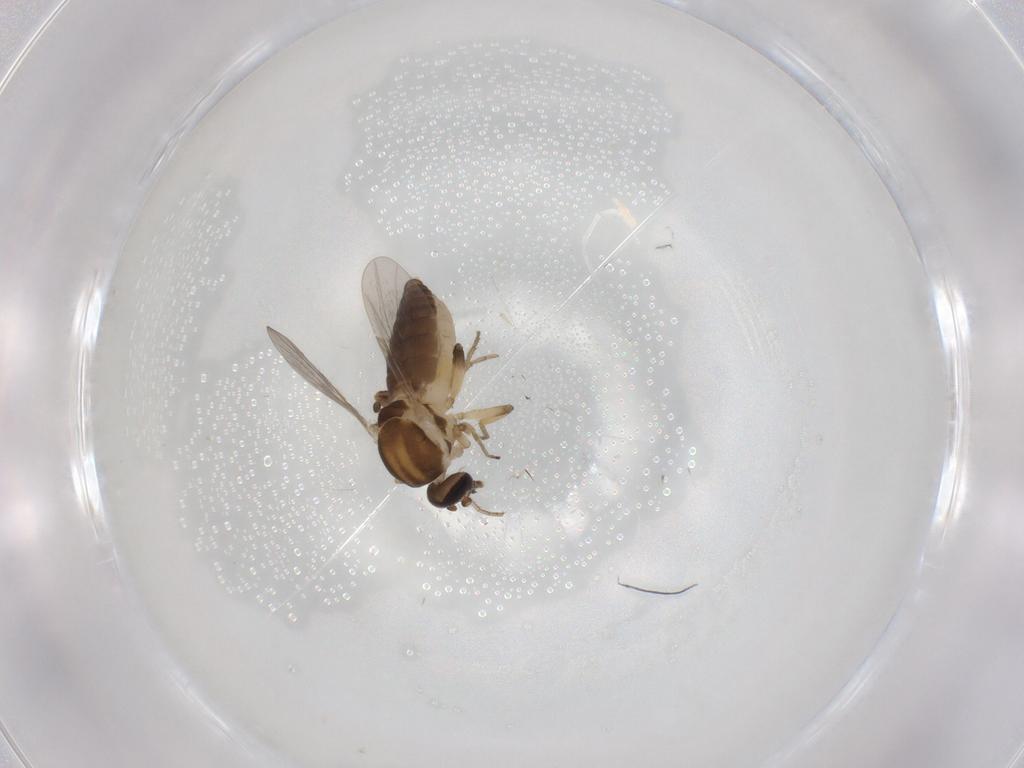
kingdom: Animalia
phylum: Arthropoda
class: Insecta
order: Diptera
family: Ceratopogonidae
